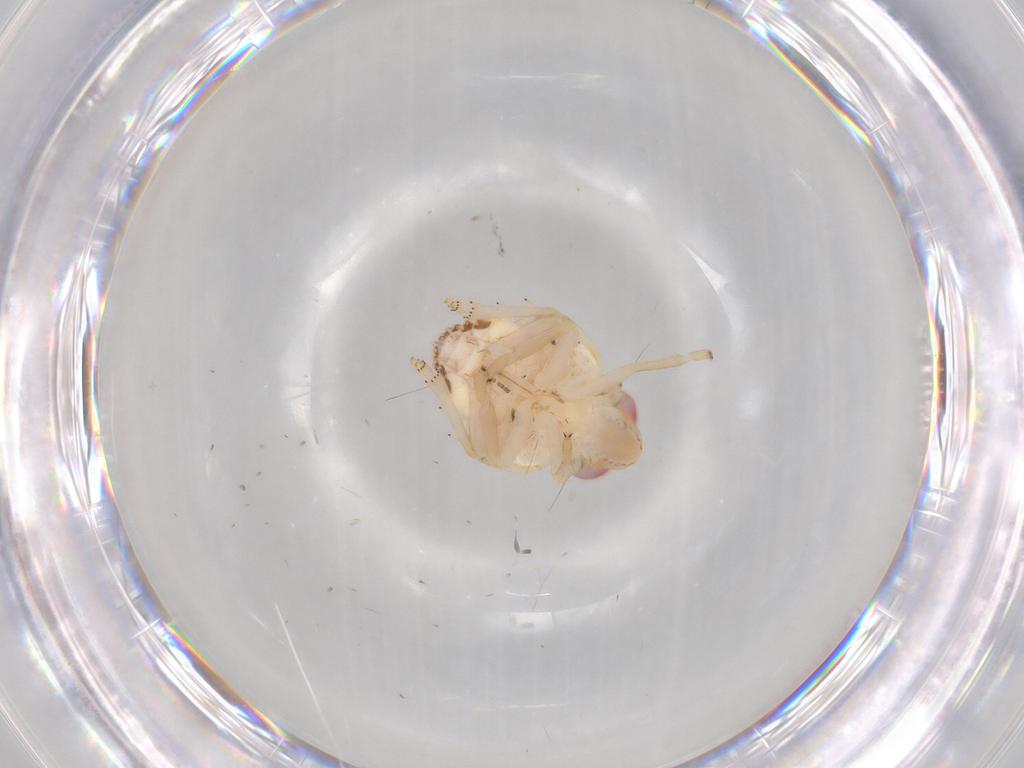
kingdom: Animalia
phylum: Arthropoda
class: Insecta
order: Hemiptera
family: Nogodinidae
